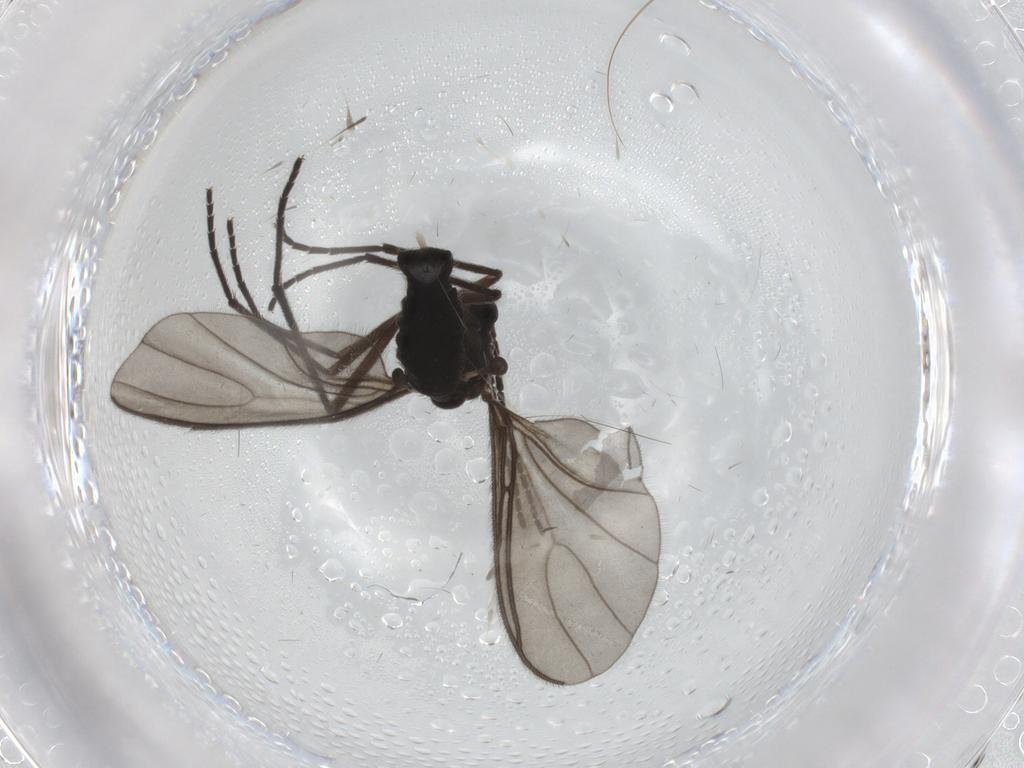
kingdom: Animalia
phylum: Arthropoda
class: Insecta
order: Diptera
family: Sciaridae
